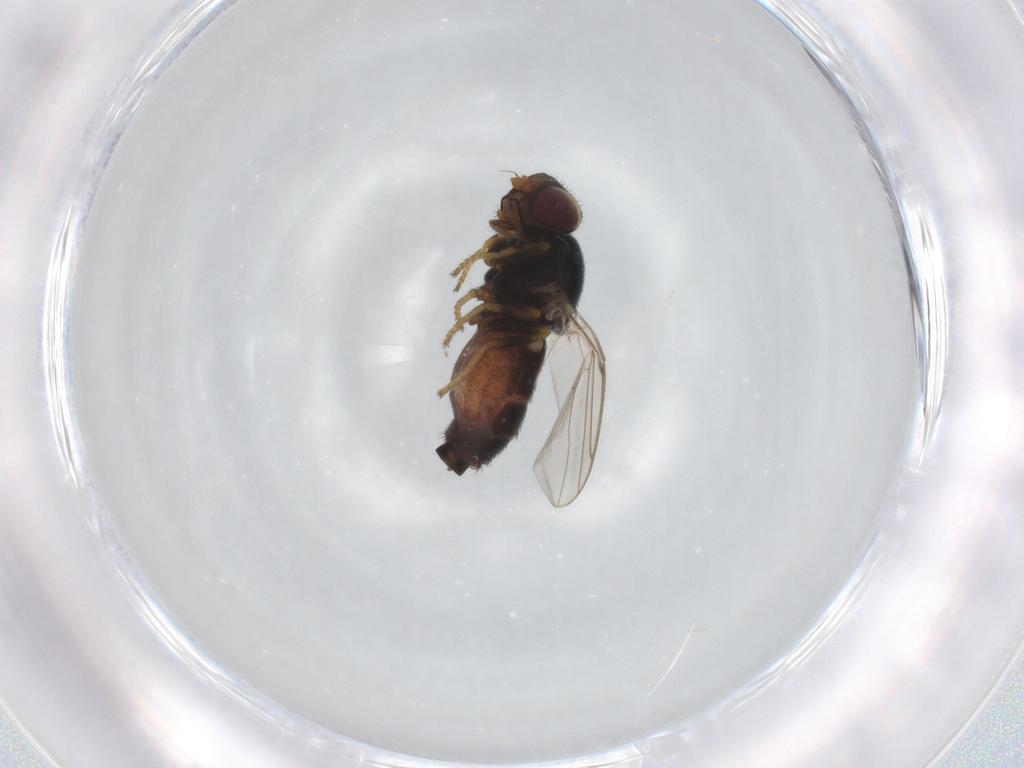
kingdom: Animalia
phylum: Arthropoda
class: Insecta
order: Diptera
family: Chloropidae
